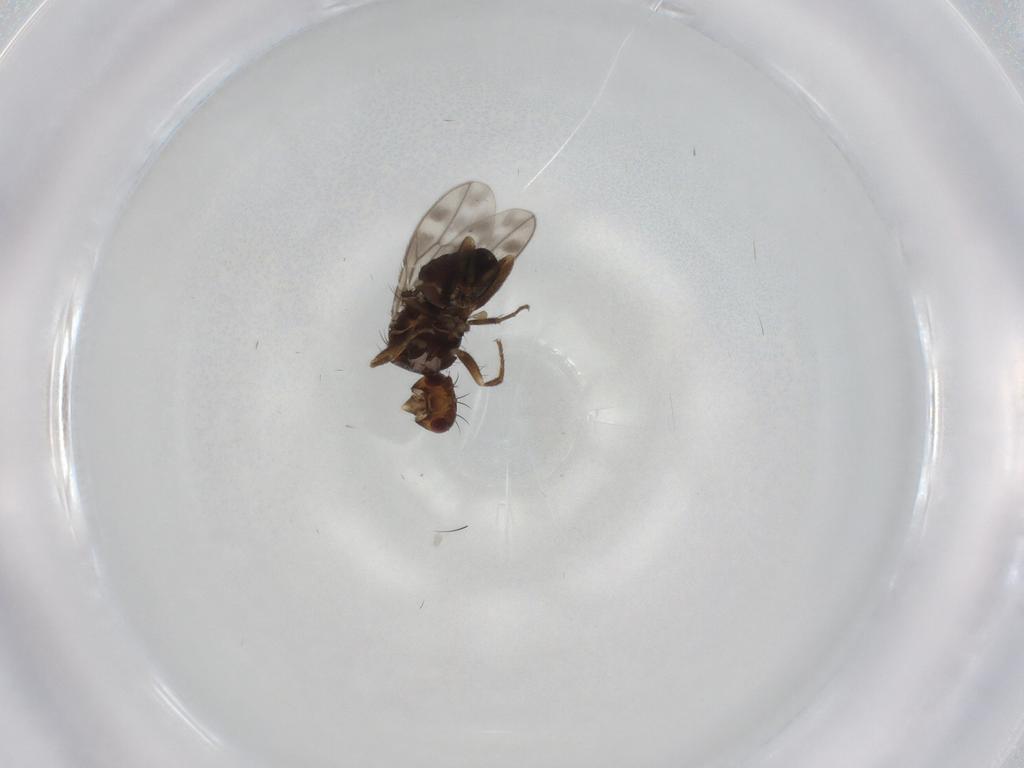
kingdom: Animalia
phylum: Arthropoda
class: Insecta
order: Diptera
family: Sphaeroceridae
